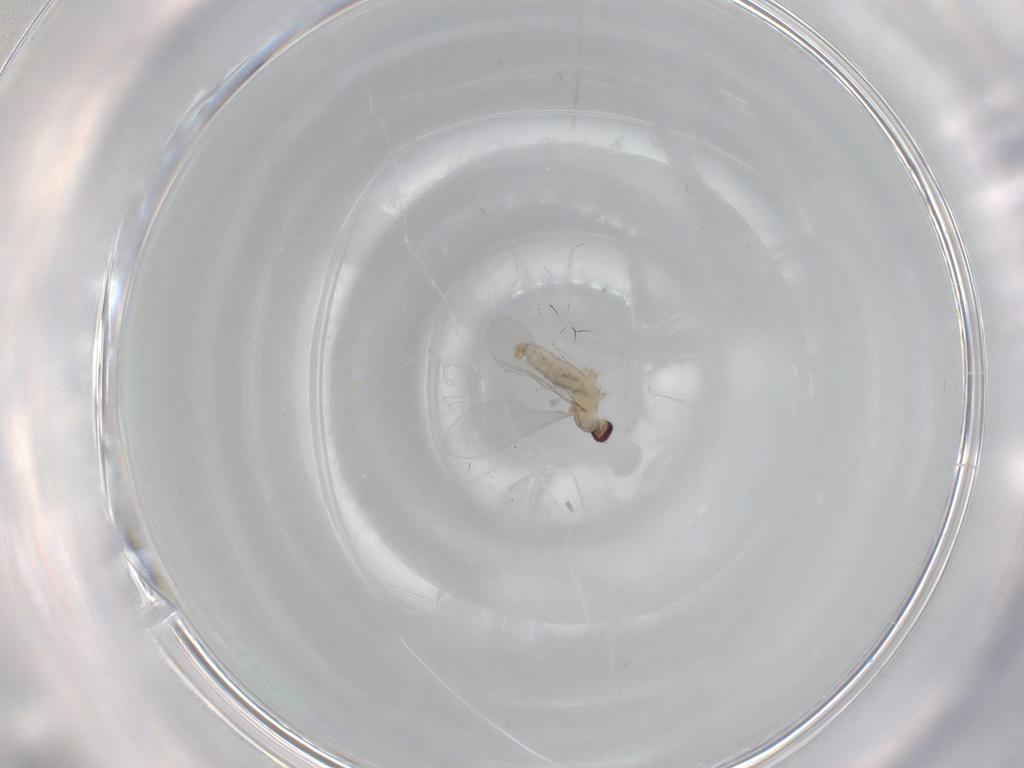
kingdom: Animalia
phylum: Arthropoda
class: Insecta
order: Diptera
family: Cecidomyiidae
